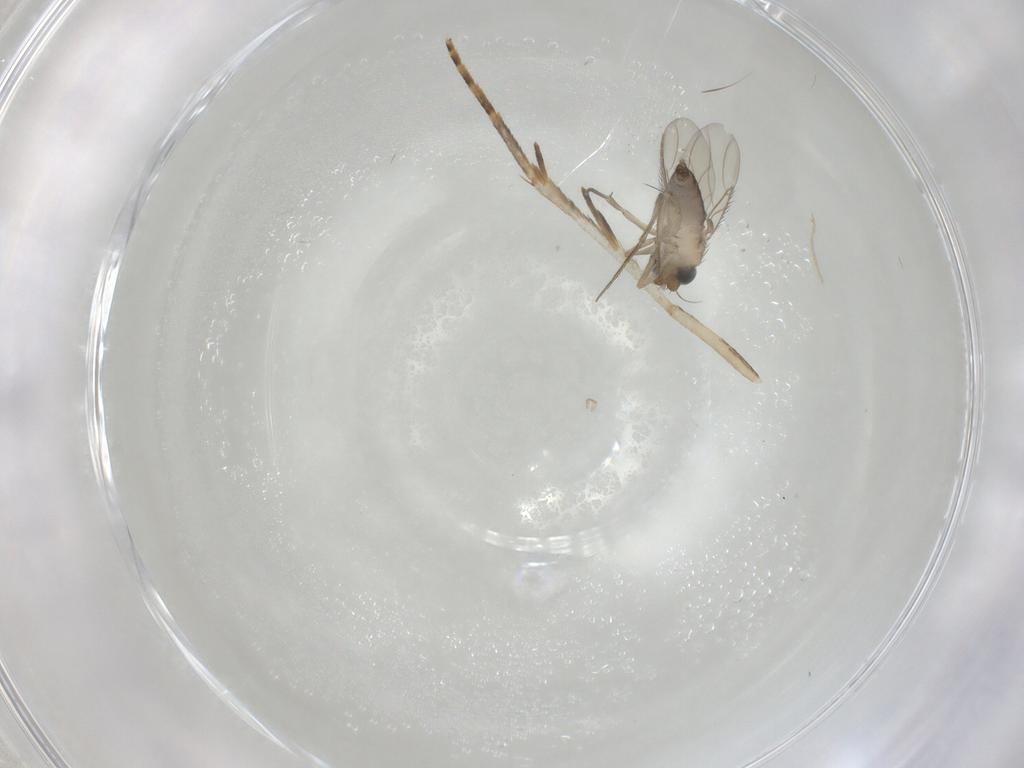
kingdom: Animalia
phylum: Arthropoda
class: Insecta
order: Diptera
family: Phoridae
